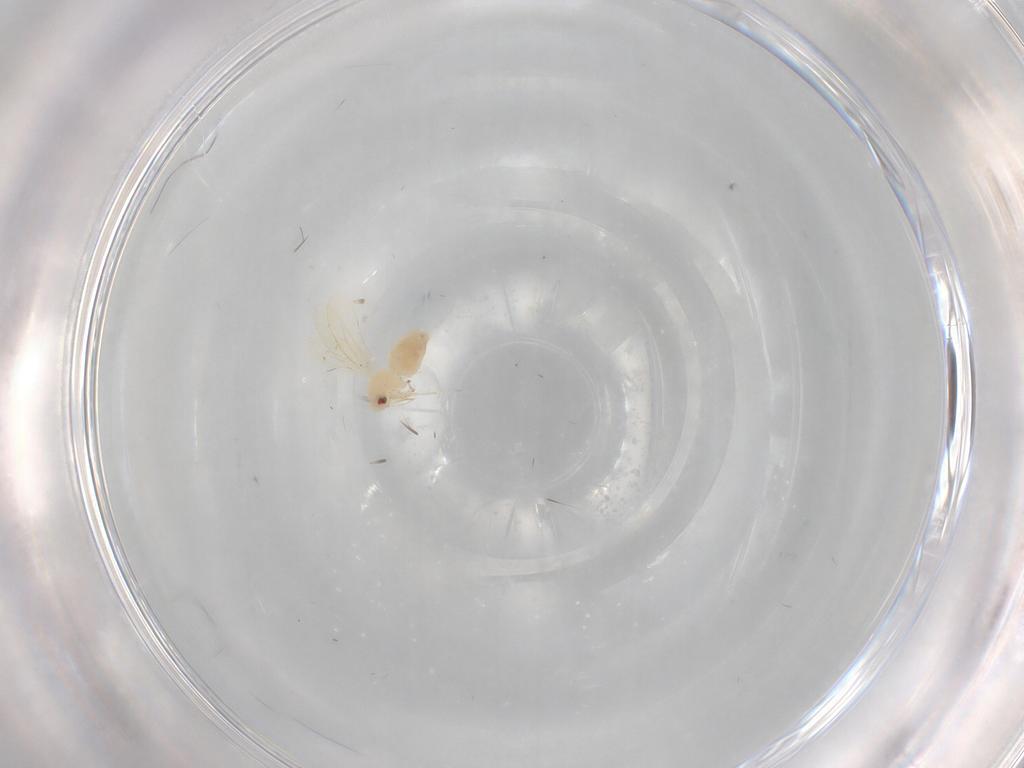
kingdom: Animalia
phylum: Arthropoda
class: Insecta
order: Hemiptera
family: Aleyrodidae
